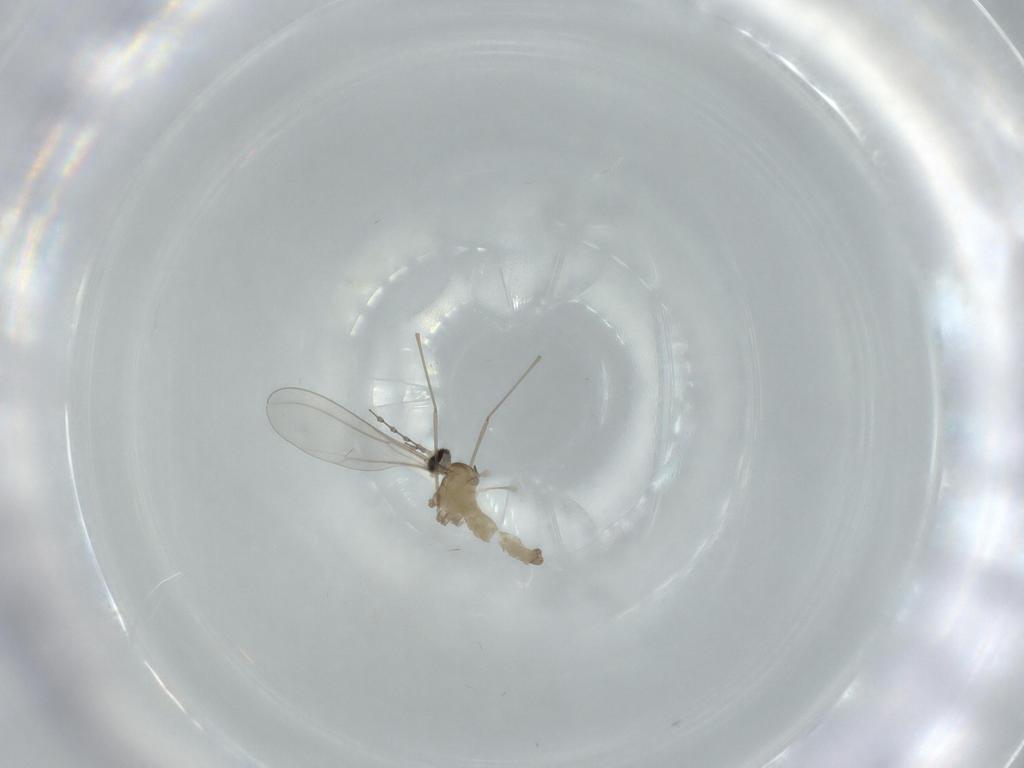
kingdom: Animalia
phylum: Arthropoda
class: Insecta
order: Diptera
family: Cecidomyiidae
